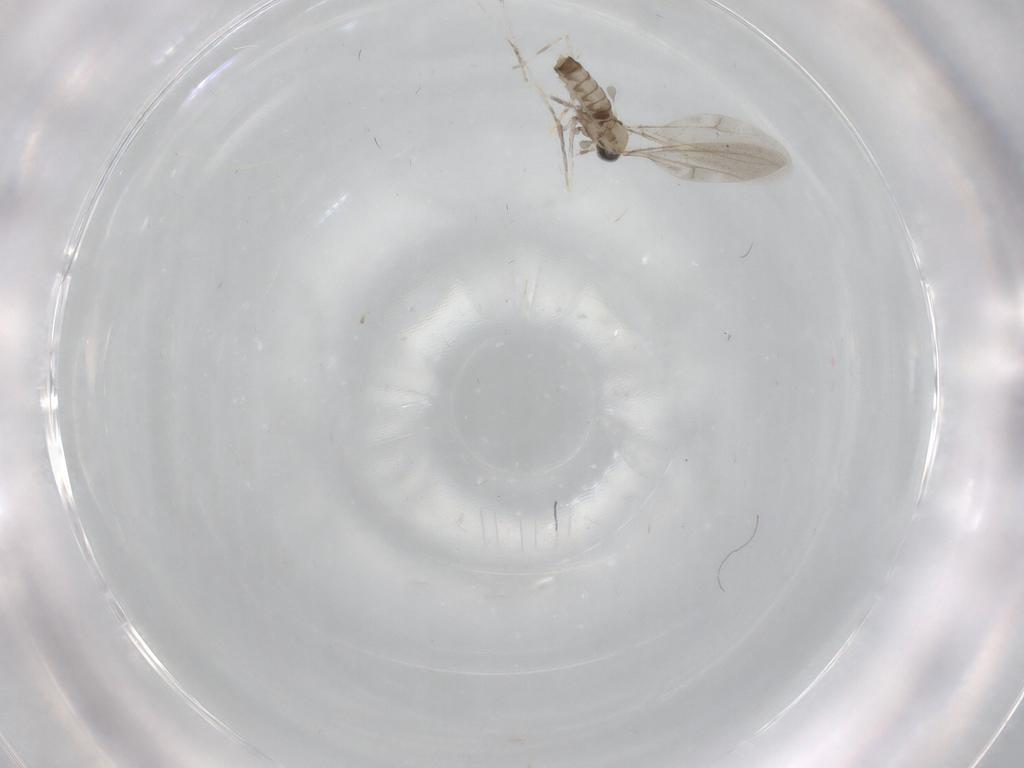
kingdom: Animalia
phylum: Arthropoda
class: Insecta
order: Diptera
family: Cecidomyiidae
